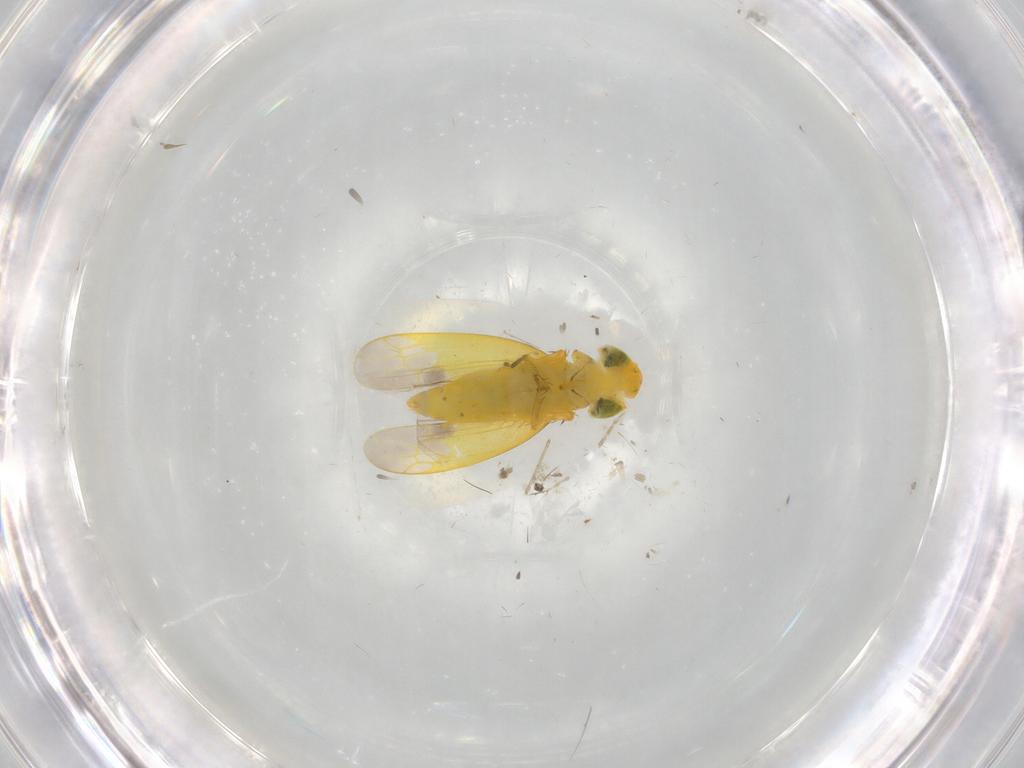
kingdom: Animalia
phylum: Arthropoda
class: Insecta
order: Hemiptera
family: Cicadellidae
